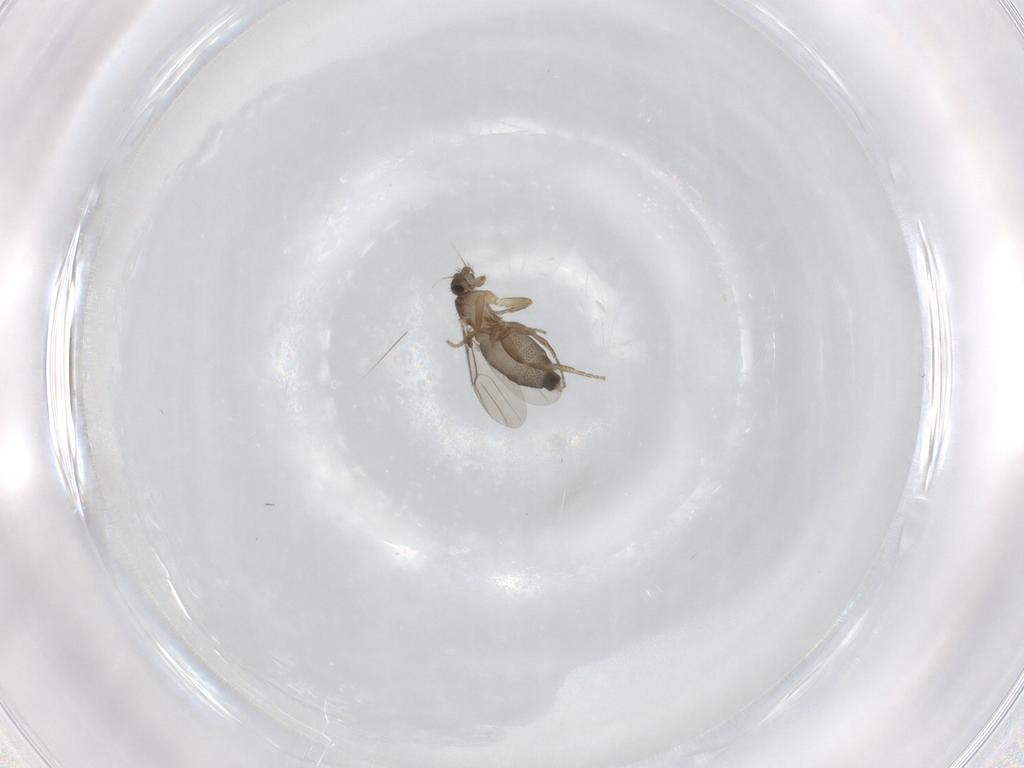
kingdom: Animalia
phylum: Arthropoda
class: Insecta
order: Diptera
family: Phoridae
